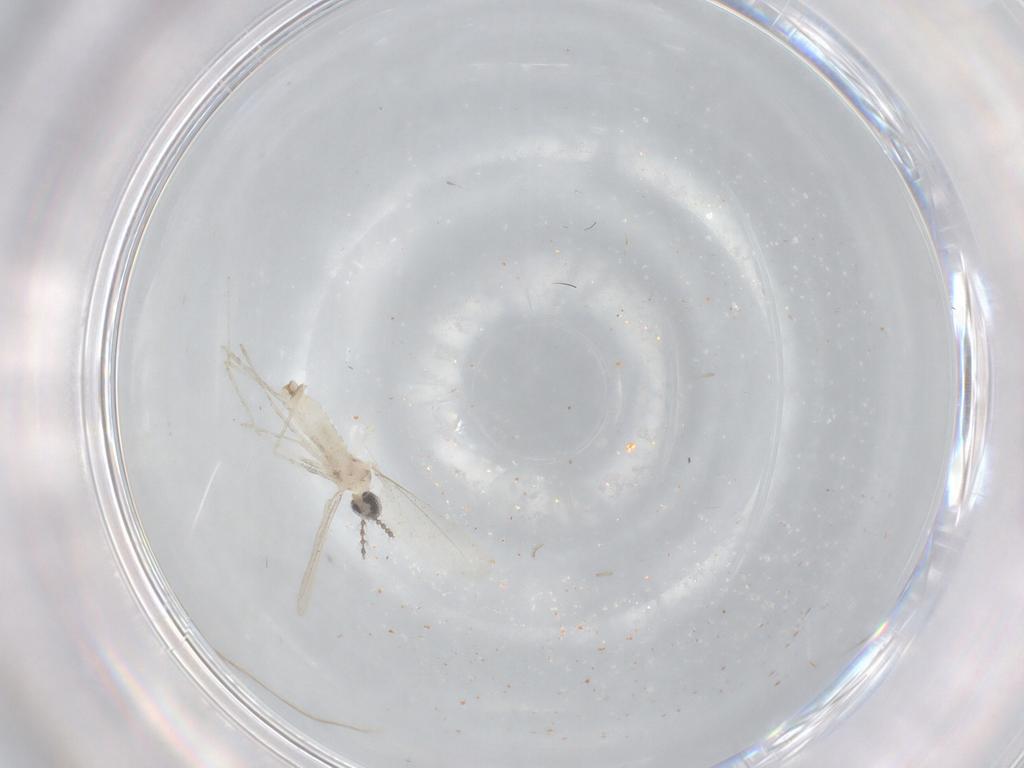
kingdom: Animalia
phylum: Arthropoda
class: Insecta
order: Diptera
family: Cecidomyiidae
